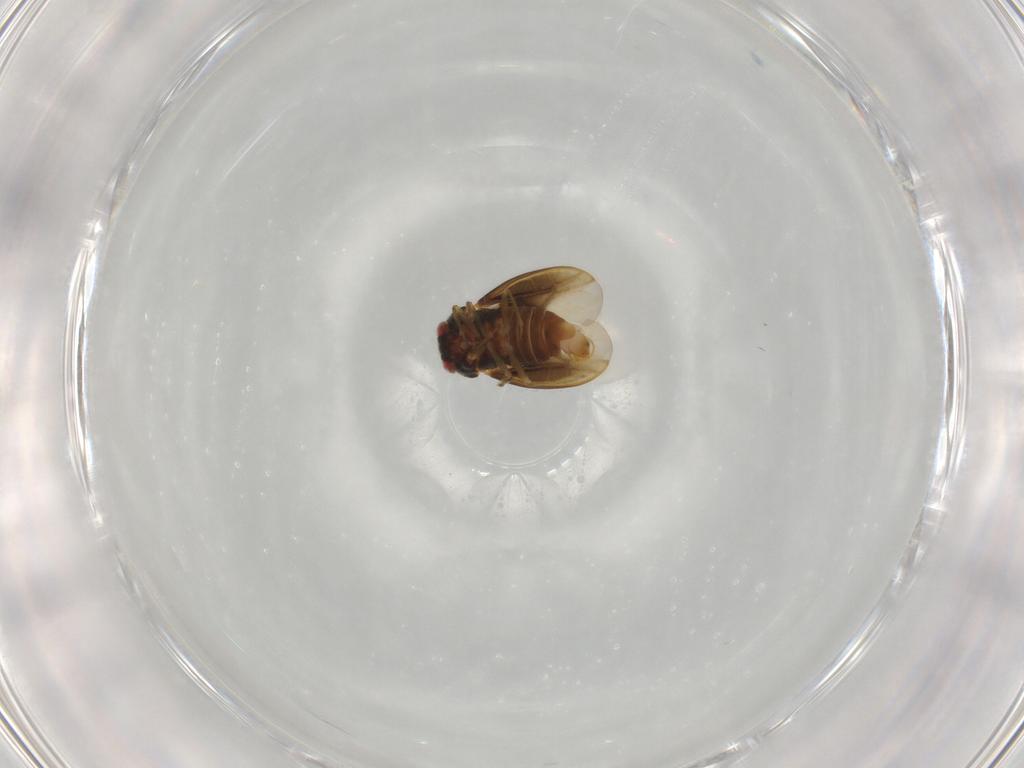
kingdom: Animalia
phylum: Arthropoda
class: Insecta
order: Hemiptera
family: Schizopteridae
